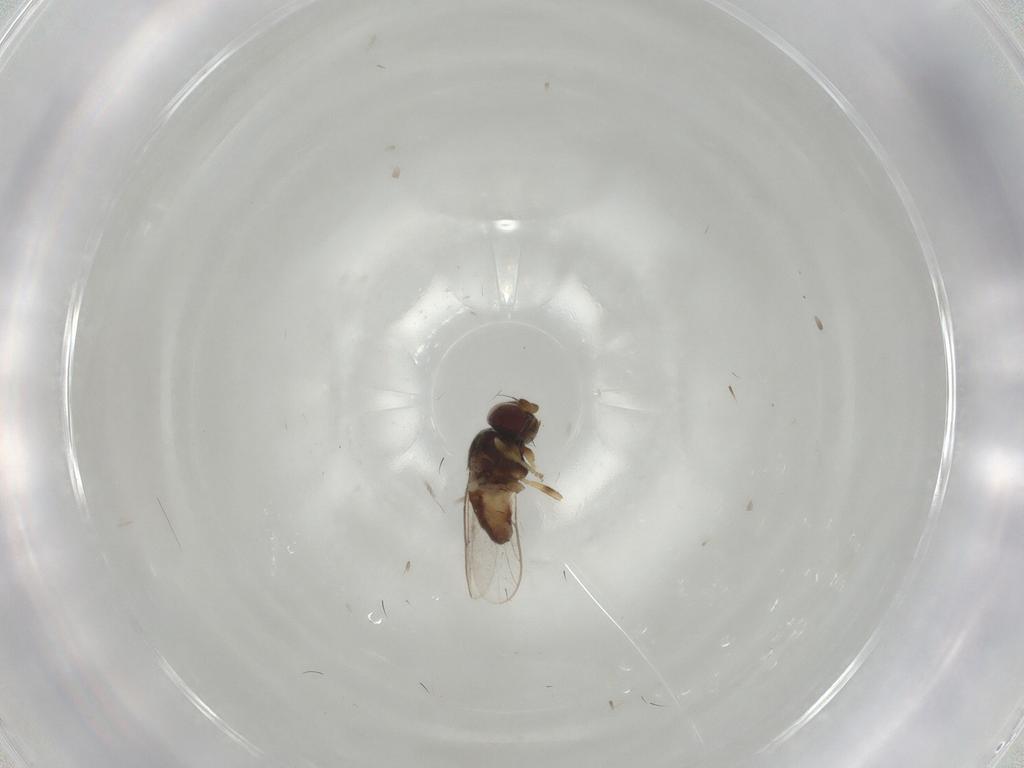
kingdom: Animalia
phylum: Arthropoda
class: Insecta
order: Diptera
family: Chloropidae
